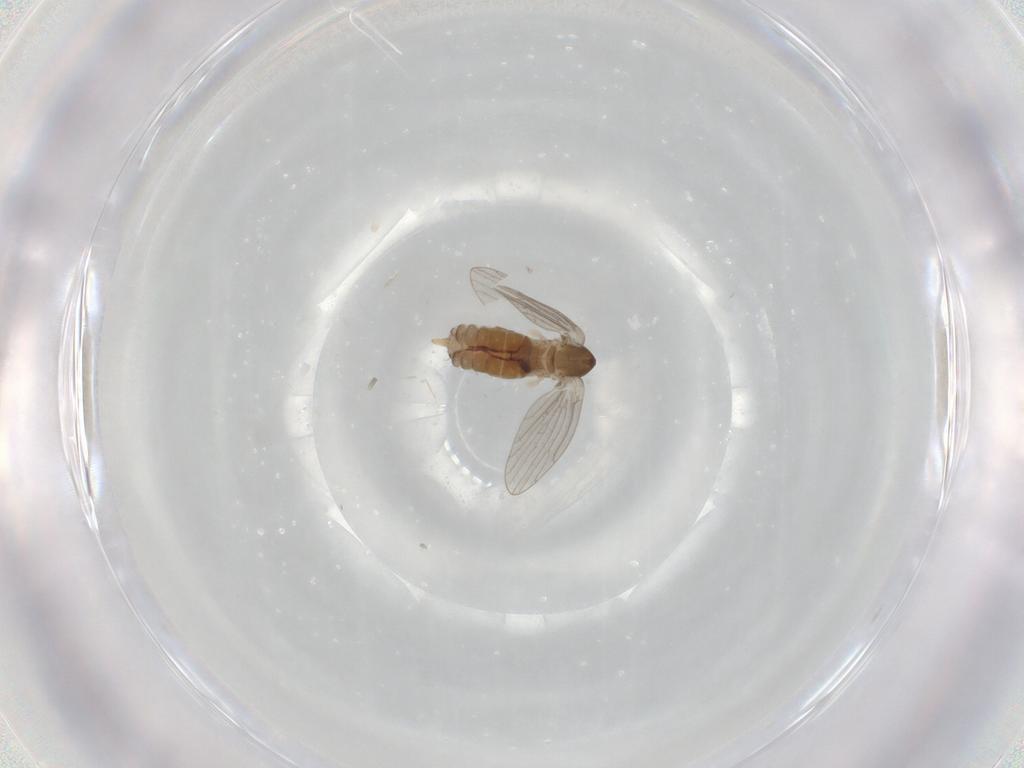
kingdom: Animalia
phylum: Arthropoda
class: Insecta
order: Diptera
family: Psychodidae
